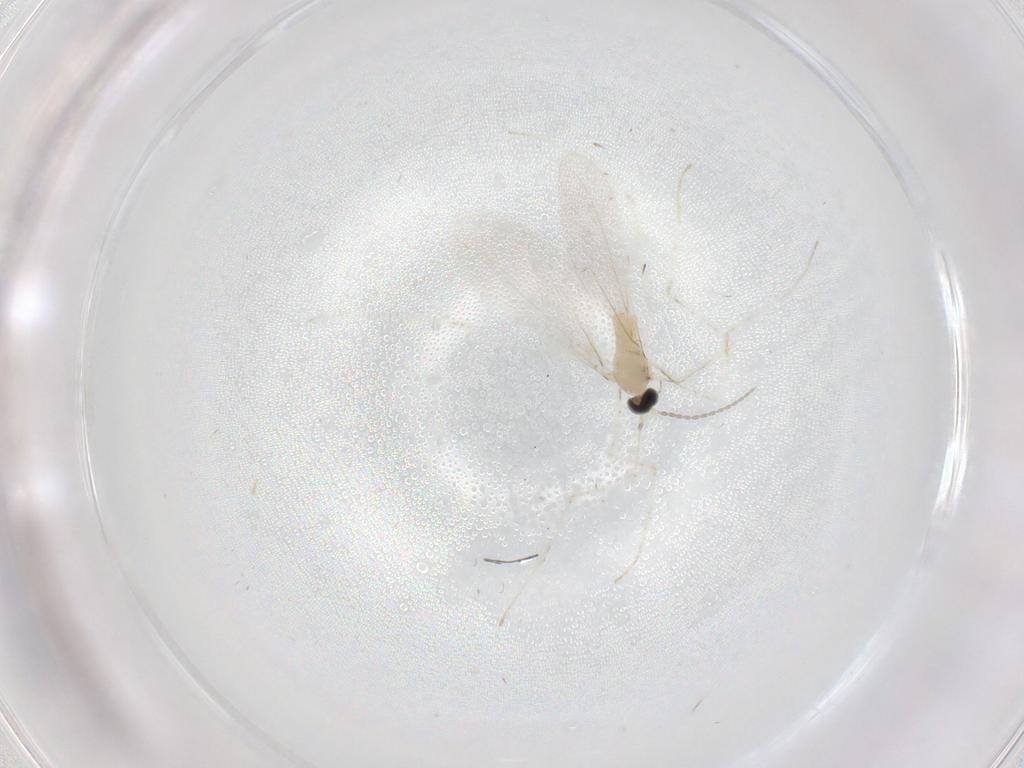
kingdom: Animalia
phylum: Arthropoda
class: Insecta
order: Diptera
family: Cecidomyiidae
